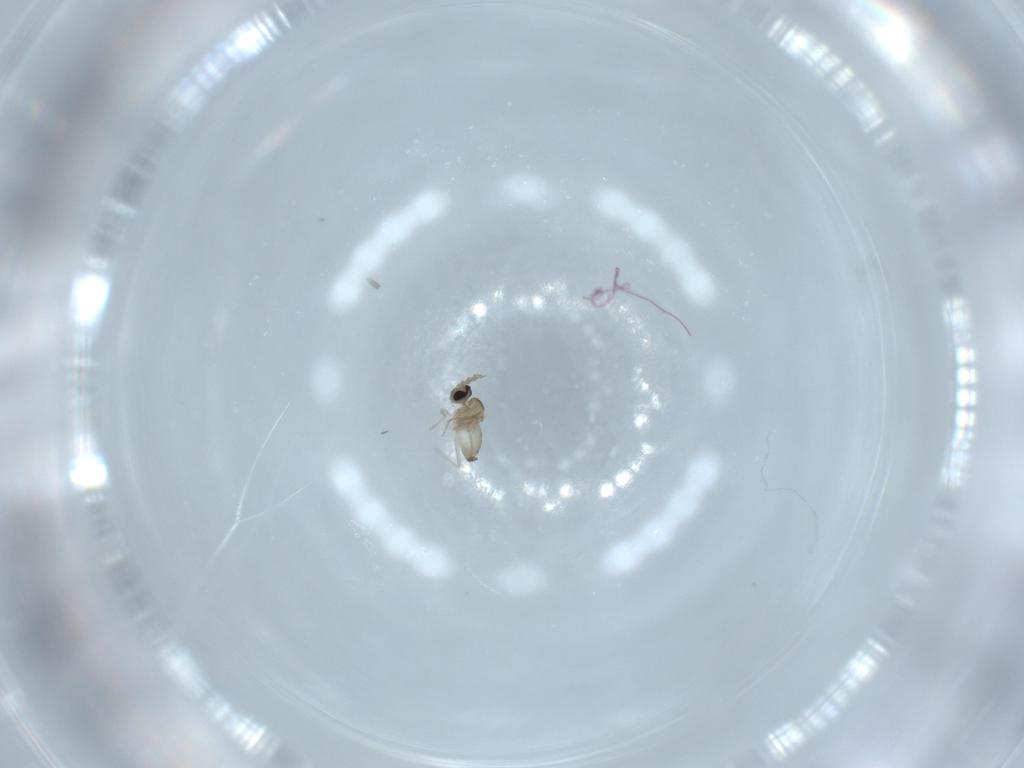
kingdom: Animalia
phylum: Arthropoda
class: Insecta
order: Diptera
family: Cecidomyiidae
